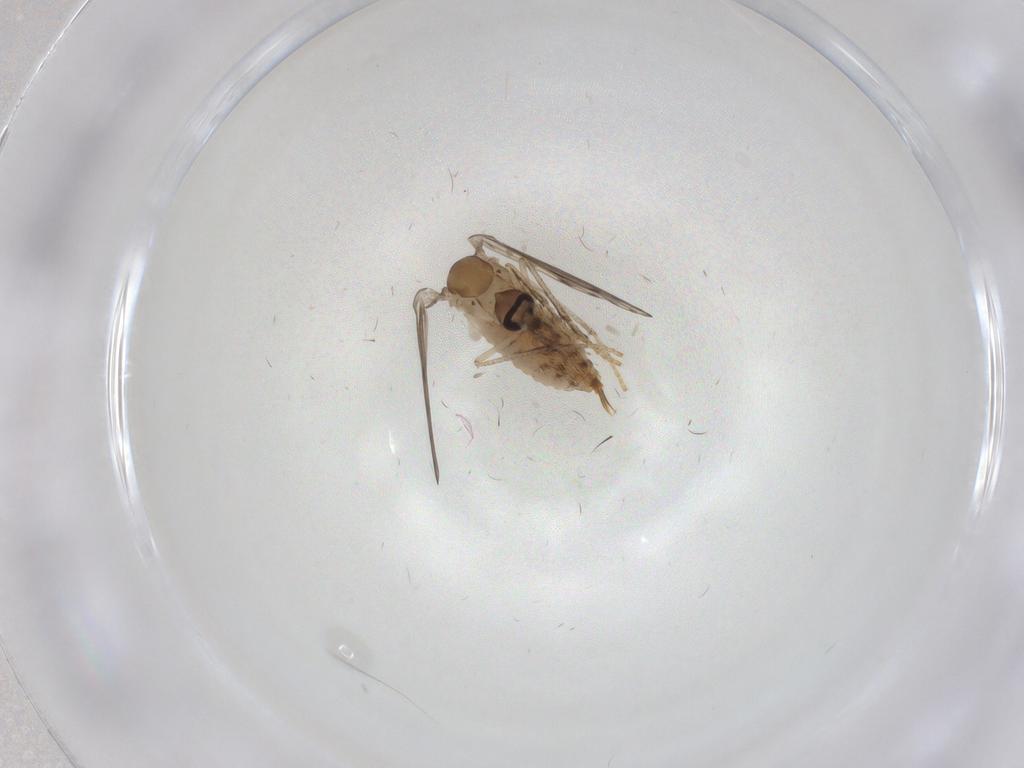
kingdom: Animalia
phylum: Arthropoda
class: Insecta
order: Diptera
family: Psychodidae
